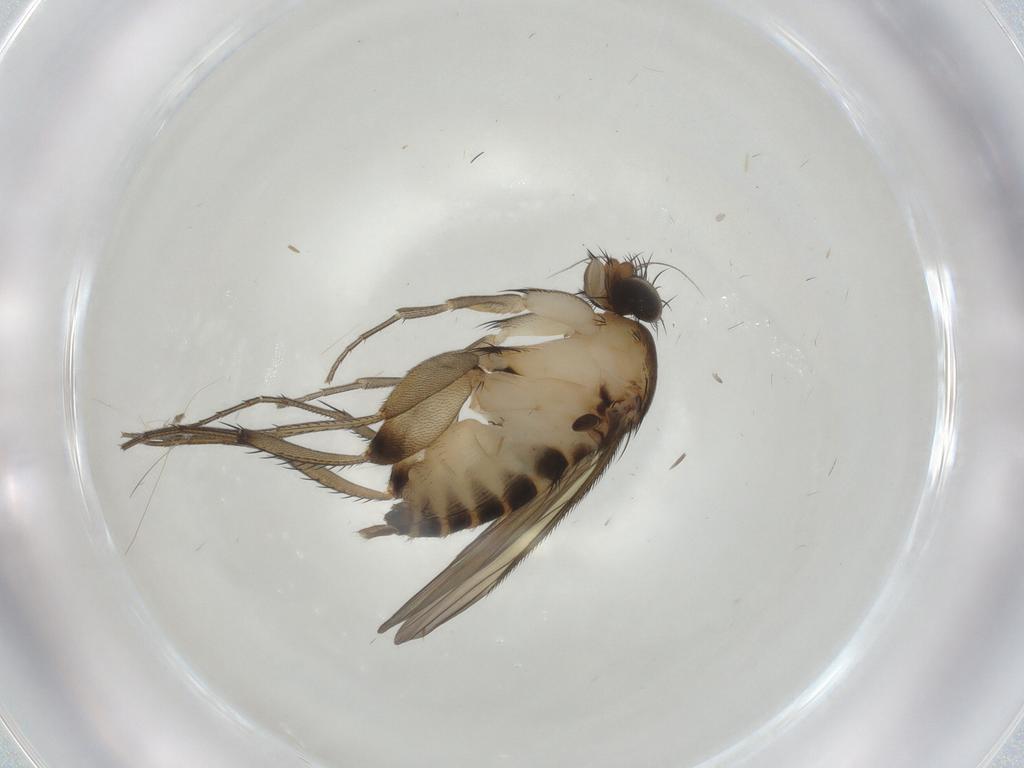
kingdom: Animalia
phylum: Arthropoda
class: Insecta
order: Diptera
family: Phoridae
